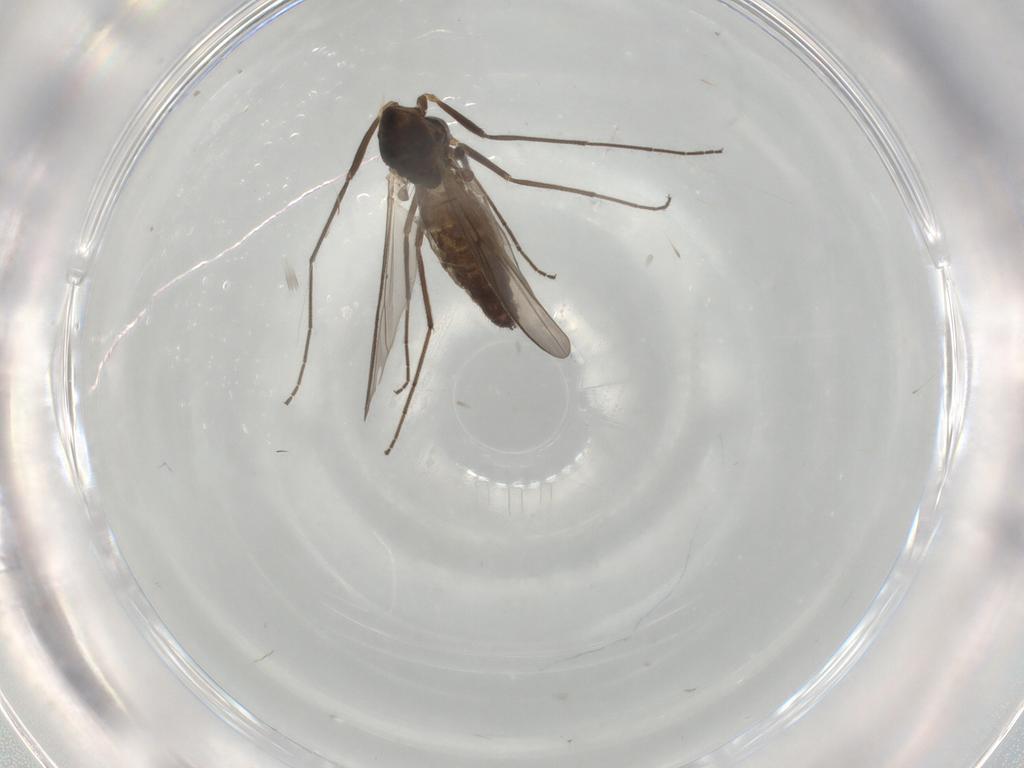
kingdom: Animalia
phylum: Arthropoda
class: Insecta
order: Diptera
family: Chironomidae
